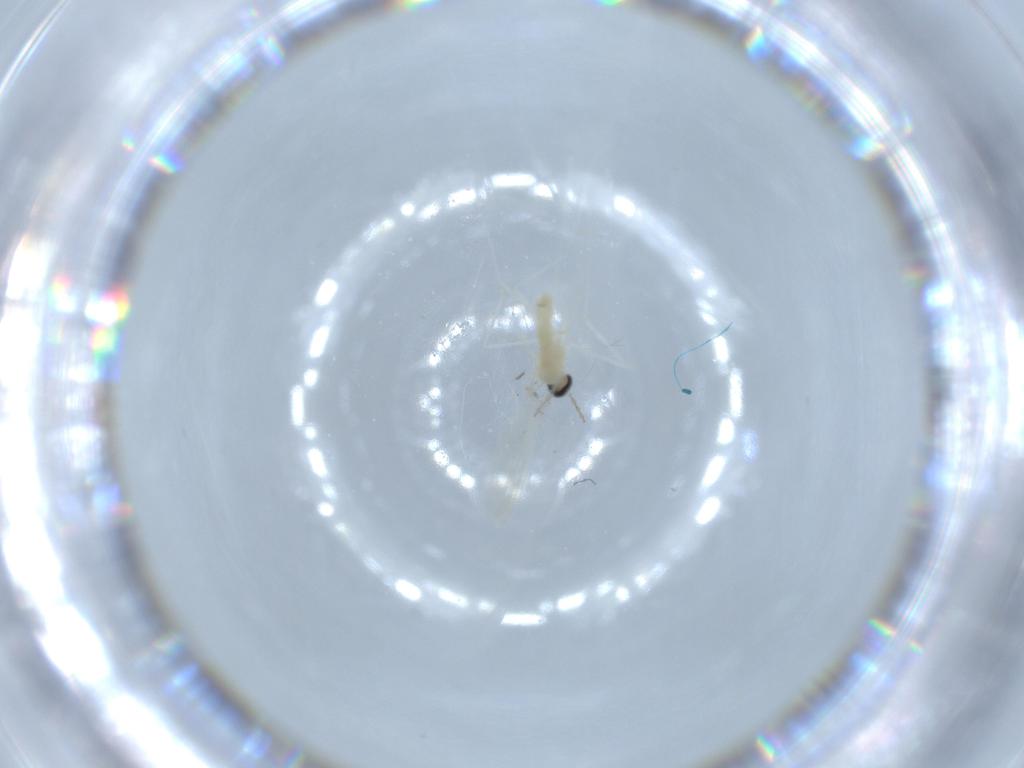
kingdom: Animalia
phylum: Arthropoda
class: Insecta
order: Diptera
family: Cecidomyiidae
